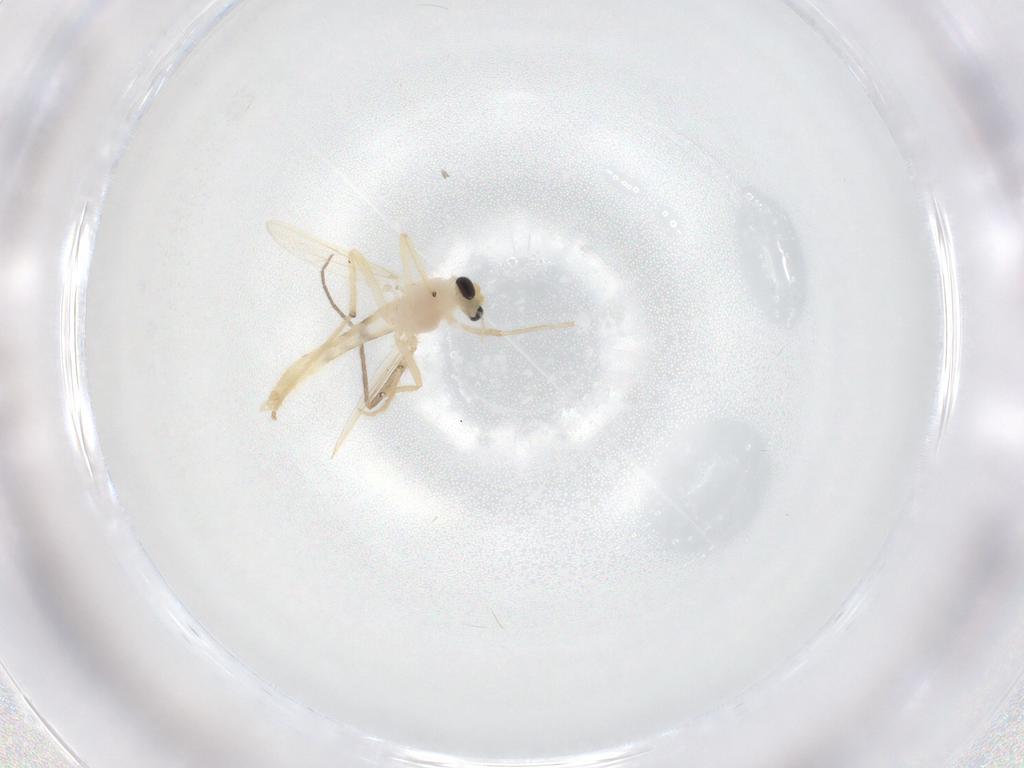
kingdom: Animalia
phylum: Arthropoda
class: Insecta
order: Diptera
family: Chironomidae
